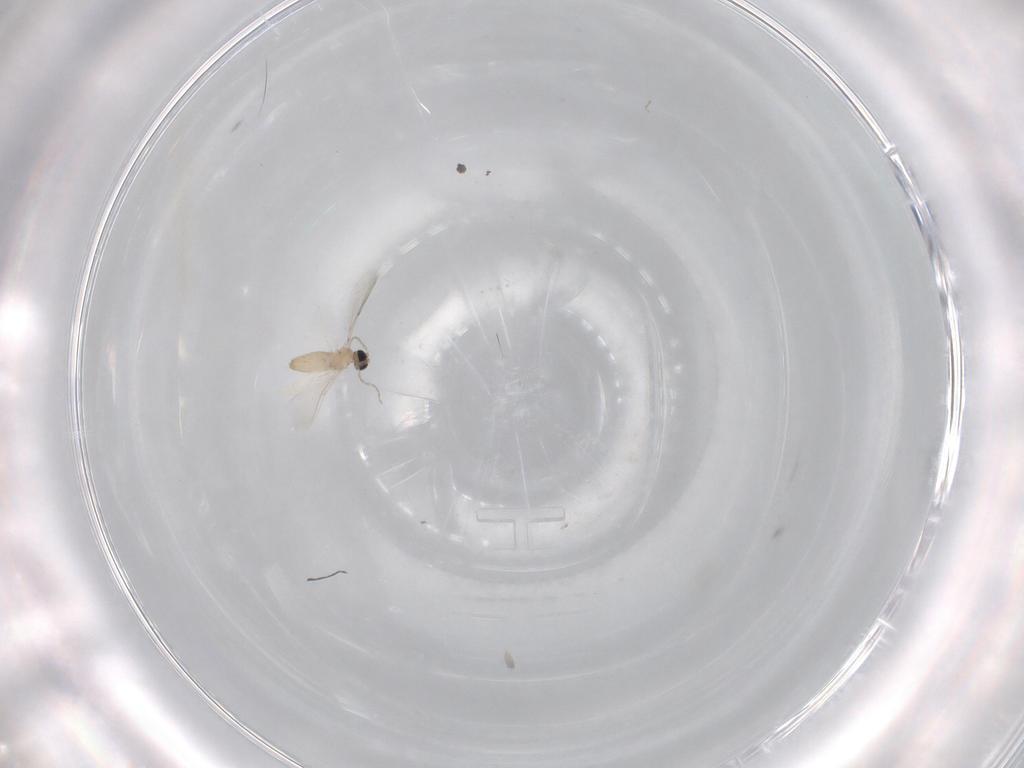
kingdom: Animalia
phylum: Arthropoda
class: Insecta
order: Diptera
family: Cecidomyiidae
